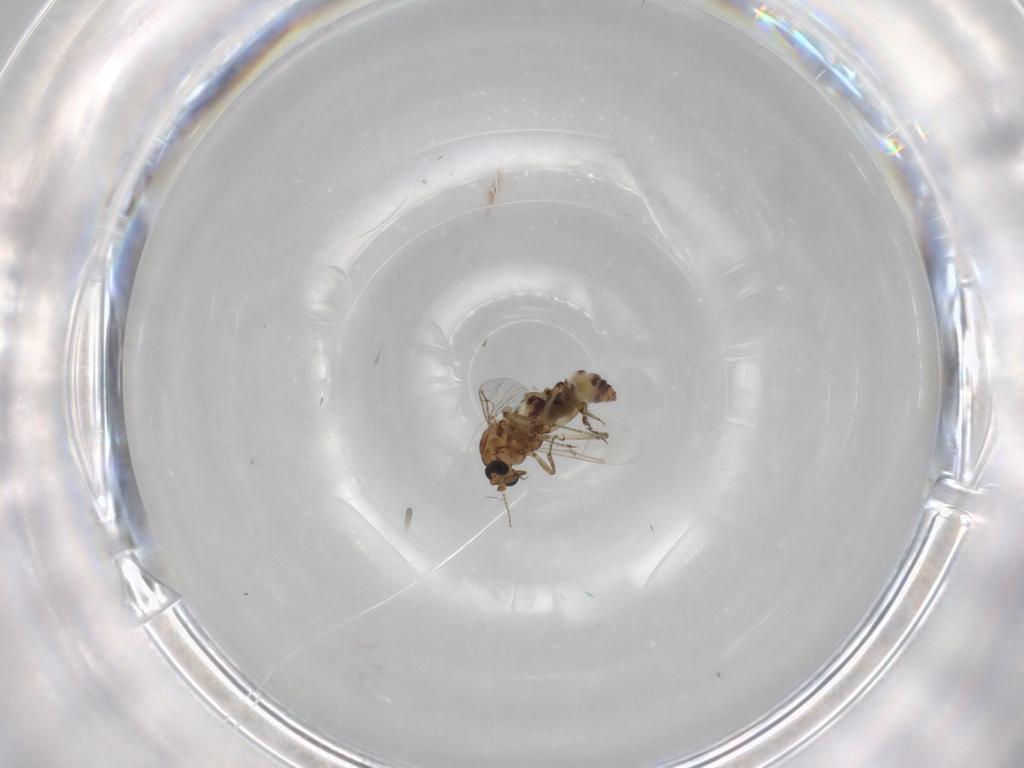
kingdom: Animalia
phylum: Arthropoda
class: Insecta
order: Diptera
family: Ceratopogonidae
